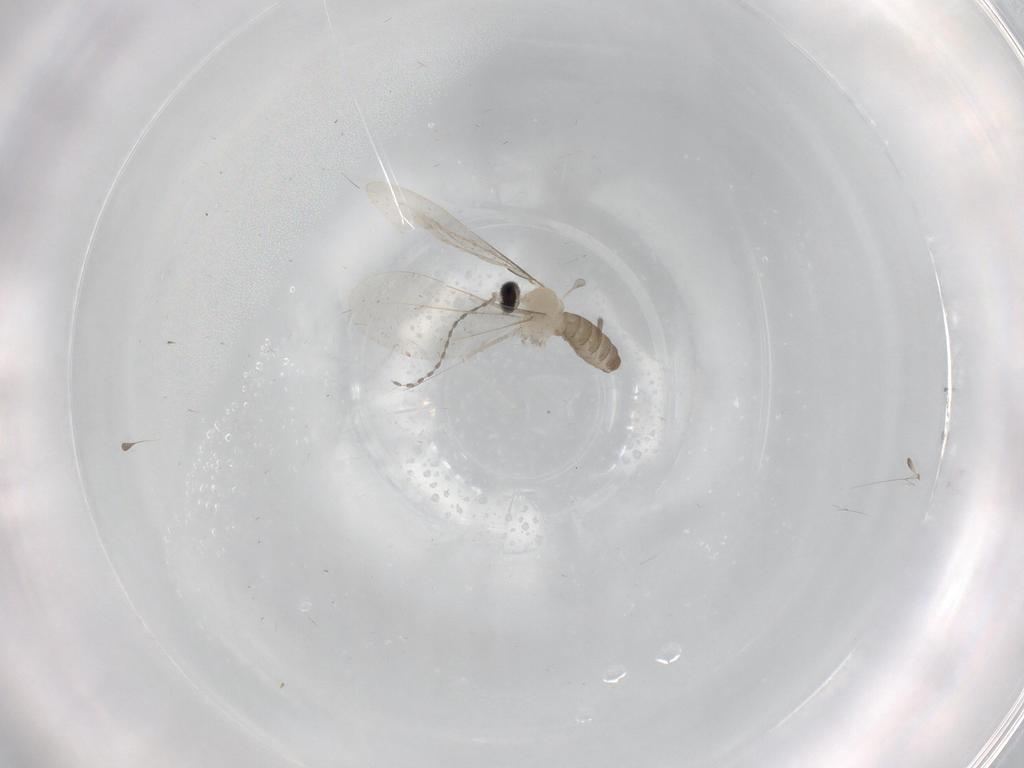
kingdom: Animalia
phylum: Arthropoda
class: Insecta
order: Diptera
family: Cecidomyiidae
